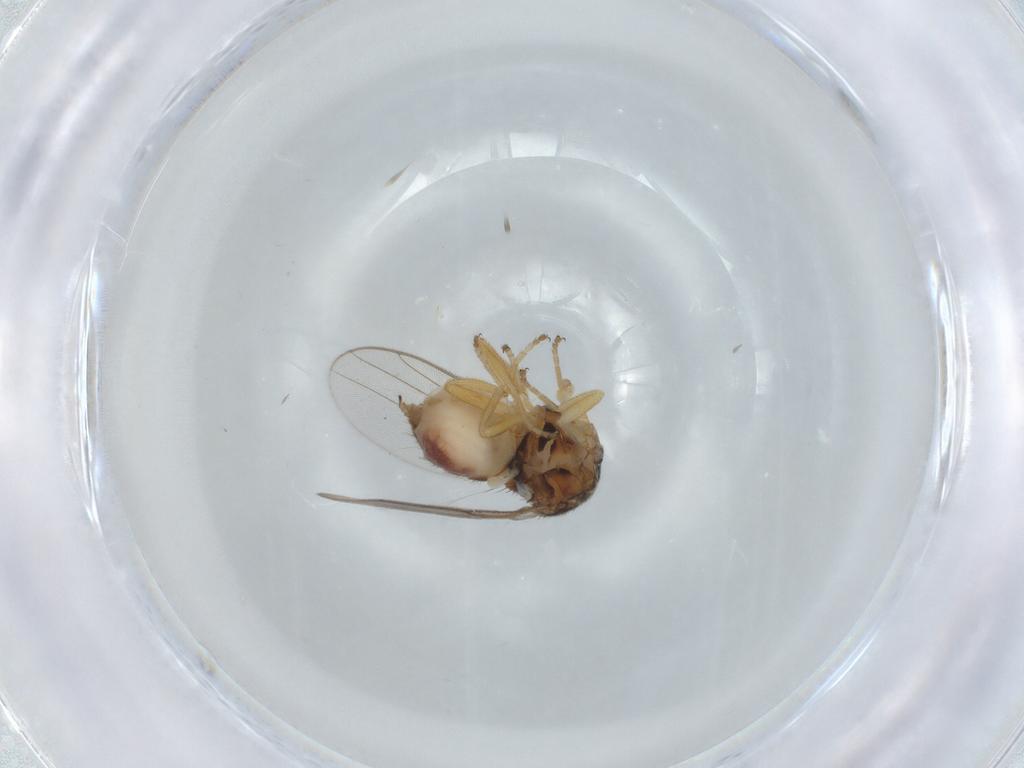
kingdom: Animalia
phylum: Arthropoda
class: Insecta
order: Diptera
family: Chloropidae
